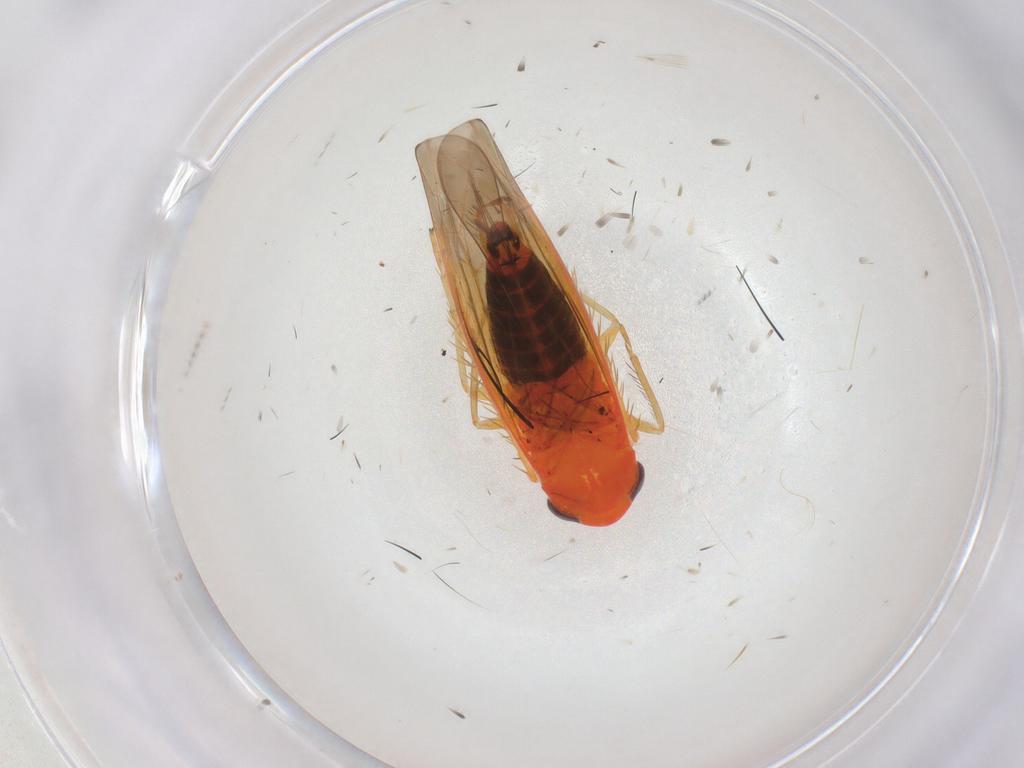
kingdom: Animalia
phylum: Arthropoda
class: Insecta
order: Hemiptera
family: Cicadellidae
